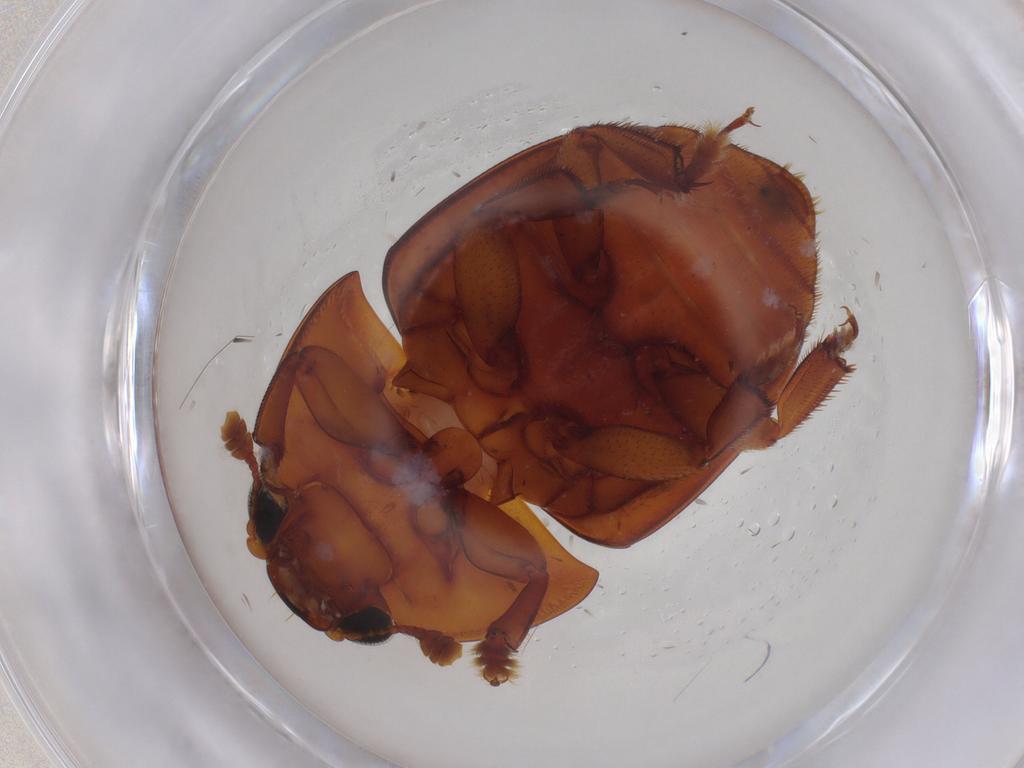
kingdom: Animalia
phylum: Arthropoda
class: Insecta
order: Coleoptera
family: Nitidulidae
